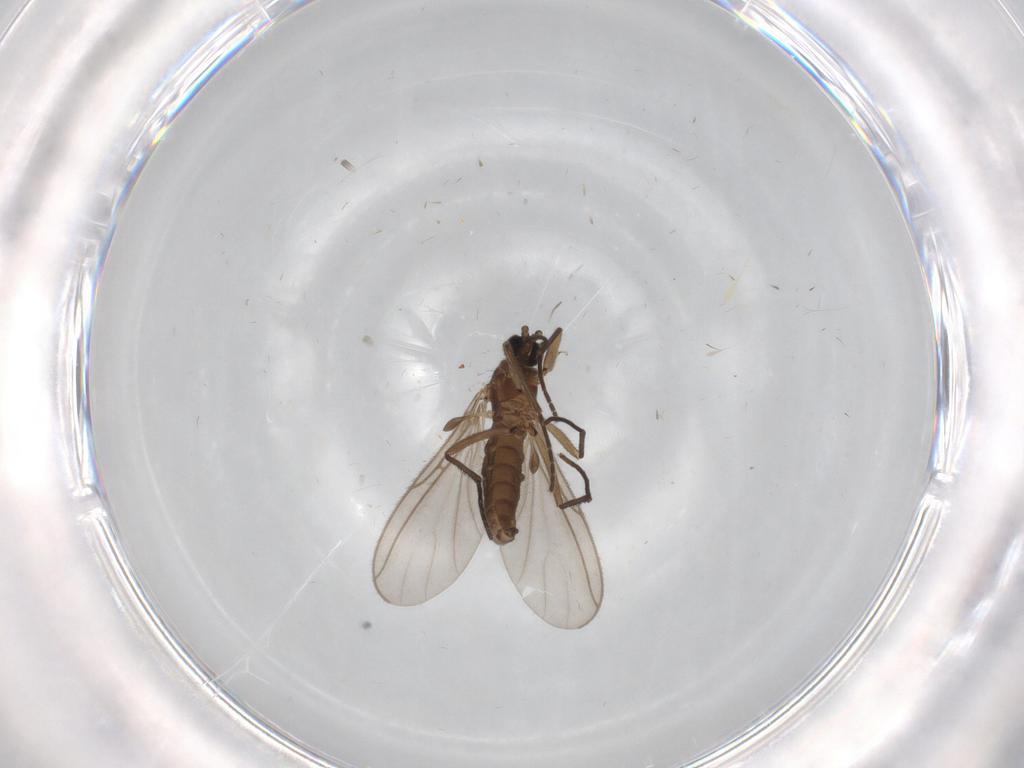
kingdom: Animalia
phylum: Arthropoda
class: Insecta
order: Diptera
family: Sciaridae
